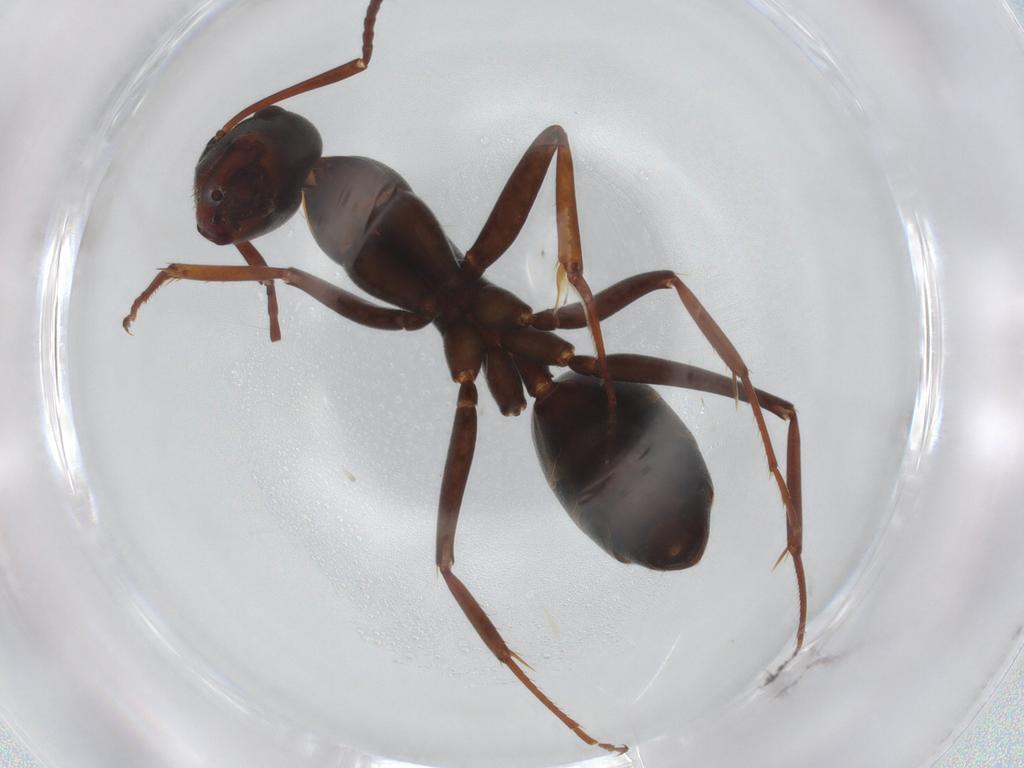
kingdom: Animalia
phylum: Arthropoda
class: Insecta
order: Hymenoptera
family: Formicidae
